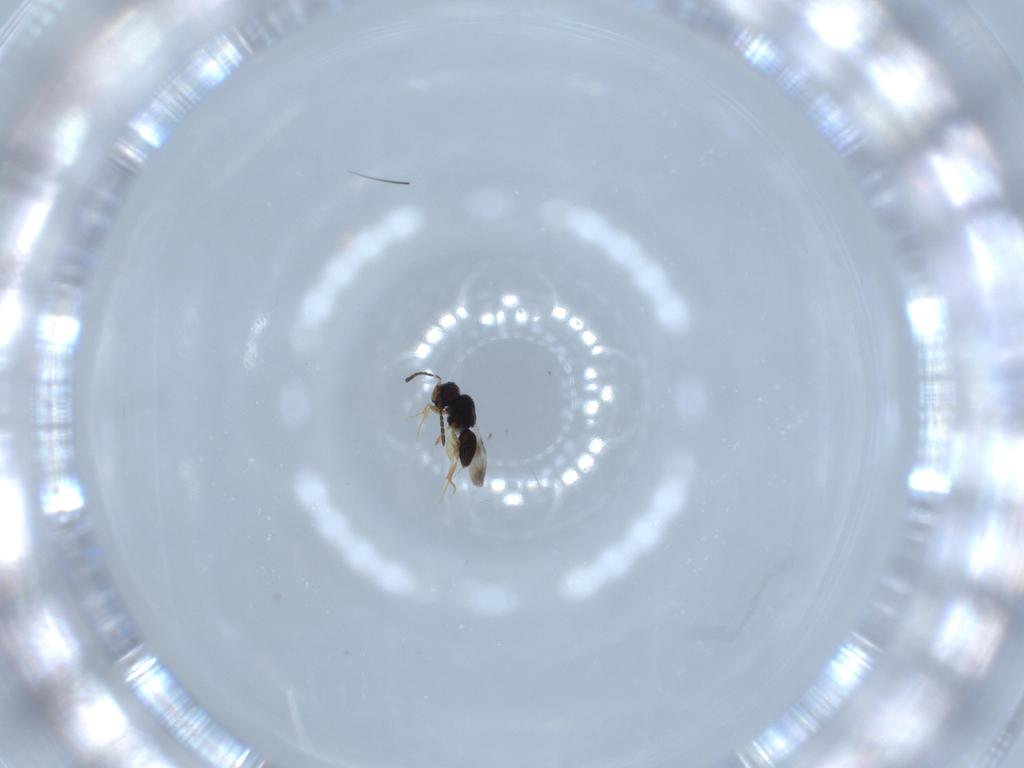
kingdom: Animalia
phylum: Arthropoda
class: Insecta
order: Hymenoptera
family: Ceraphronidae
